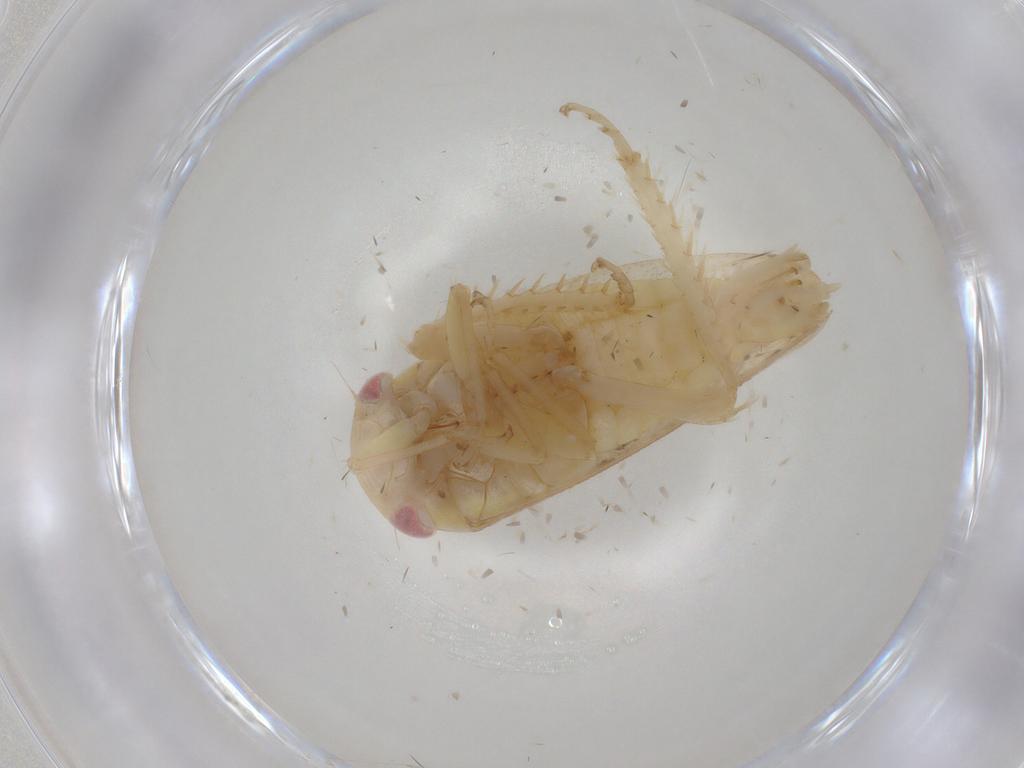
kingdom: Animalia
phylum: Arthropoda
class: Insecta
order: Hemiptera
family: Cicadellidae
